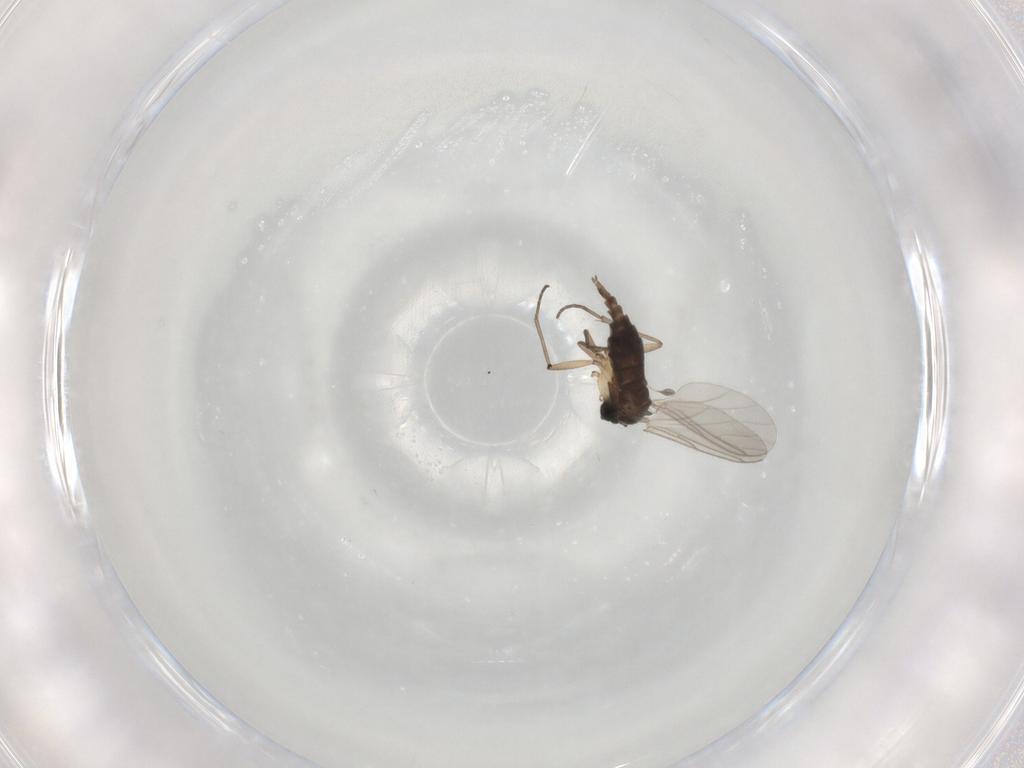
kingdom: Animalia
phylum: Arthropoda
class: Insecta
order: Diptera
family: Sciaridae
